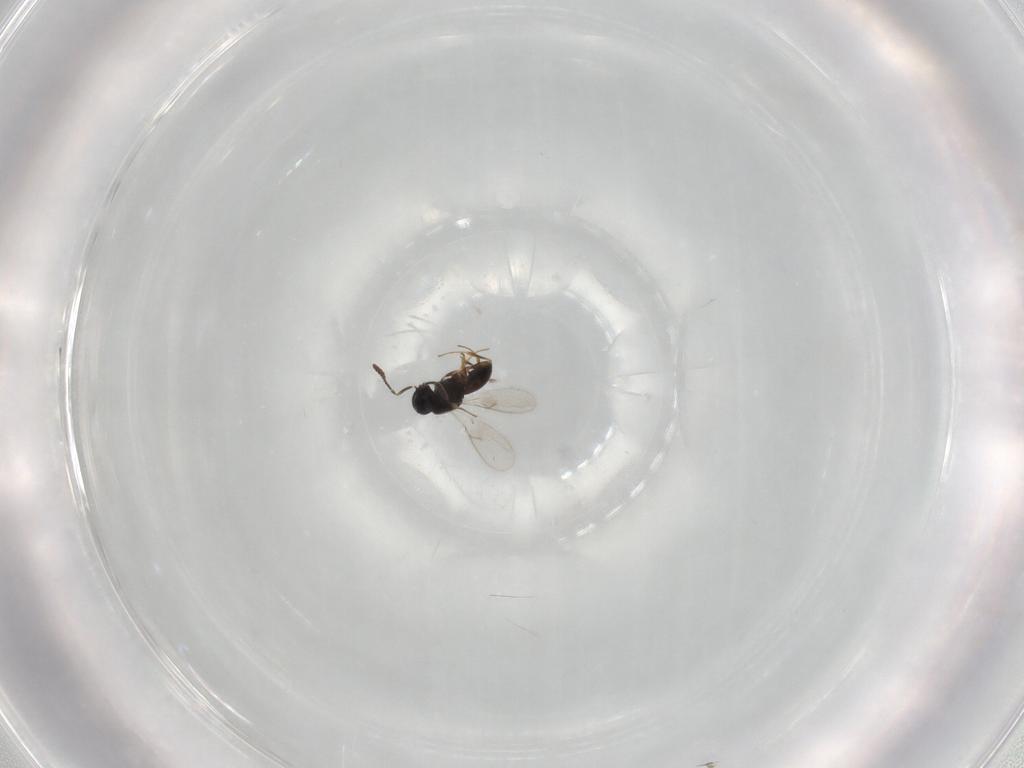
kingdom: Animalia
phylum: Arthropoda
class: Insecta
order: Hymenoptera
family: Scelionidae
